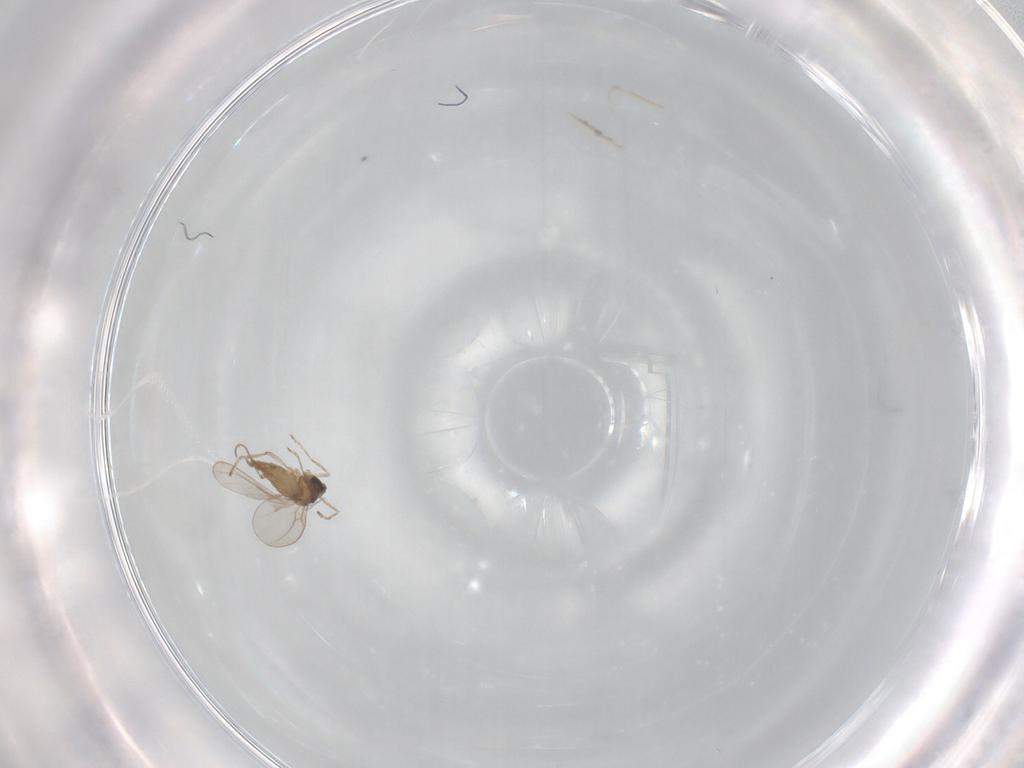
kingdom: Animalia
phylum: Arthropoda
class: Insecta
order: Diptera
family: Cecidomyiidae
